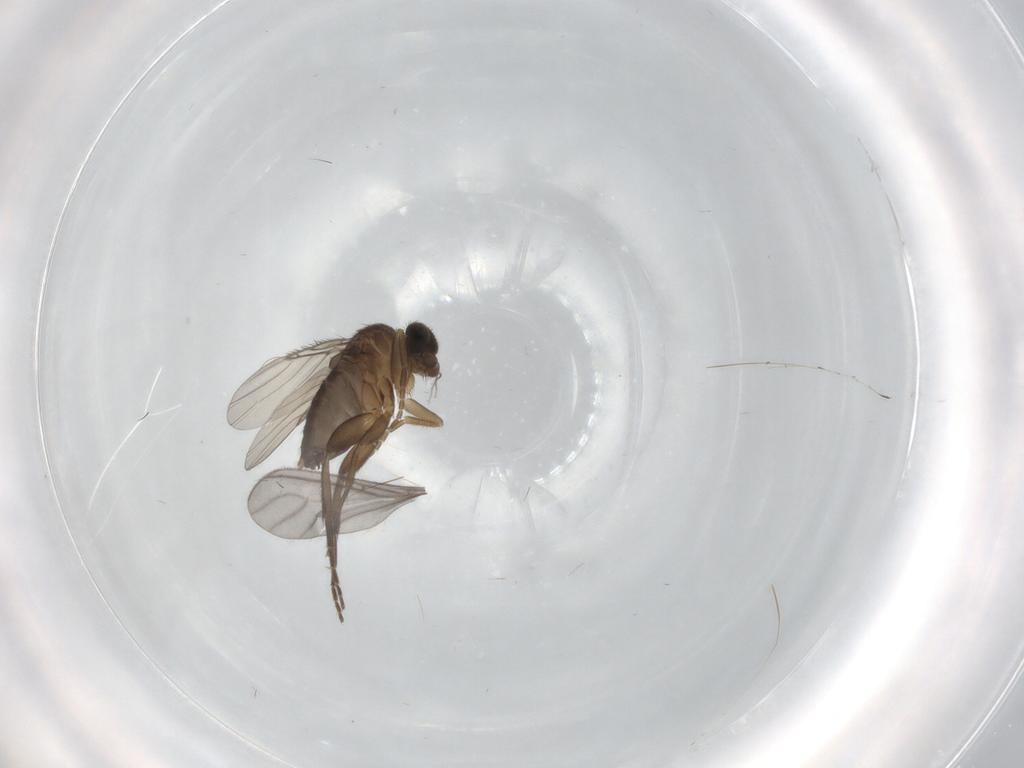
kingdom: Animalia
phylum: Arthropoda
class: Insecta
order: Diptera
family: Phoridae
